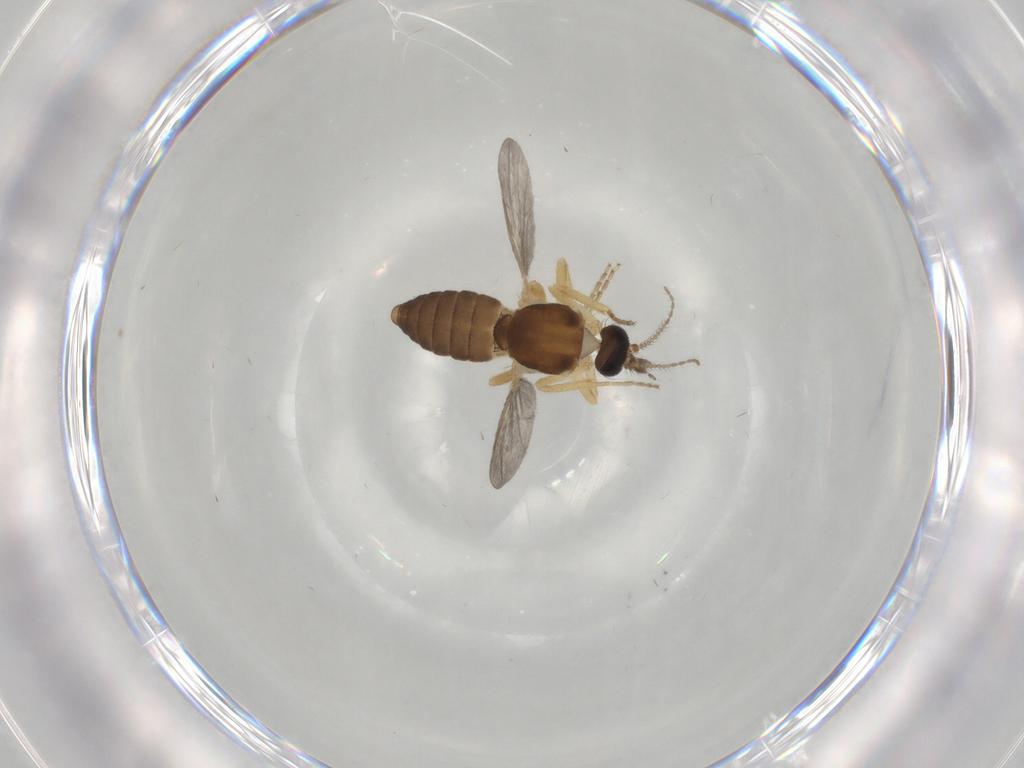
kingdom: Animalia
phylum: Arthropoda
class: Insecta
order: Diptera
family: Ceratopogonidae
